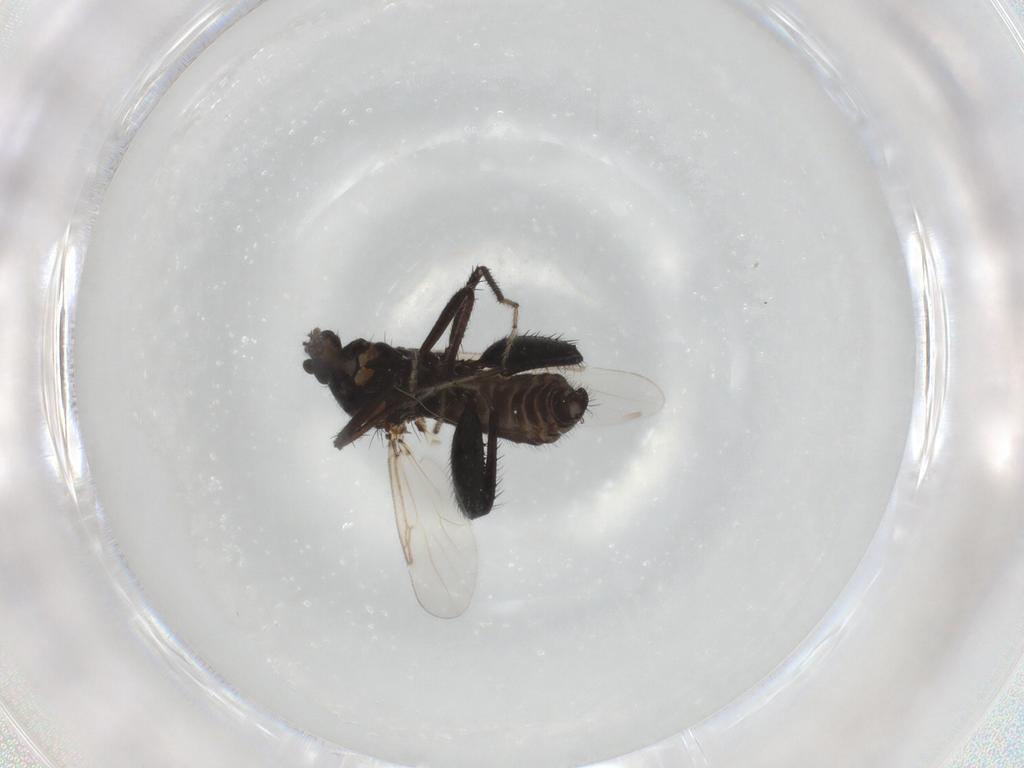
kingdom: Animalia
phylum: Arthropoda
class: Insecta
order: Diptera
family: Ceratopogonidae
